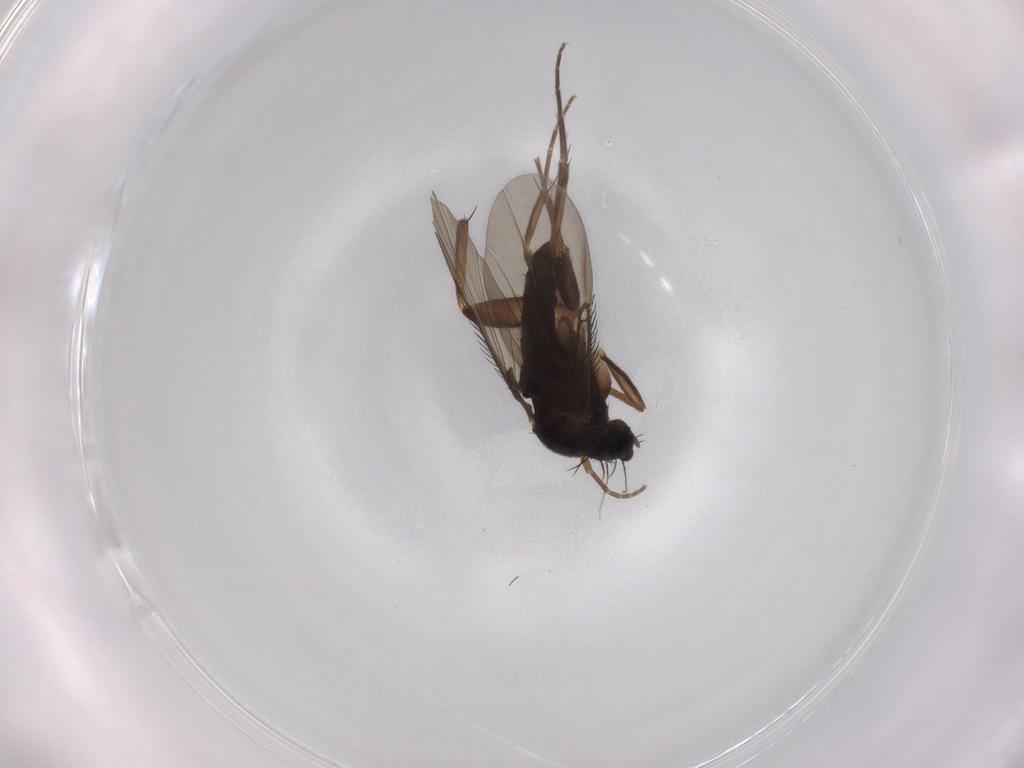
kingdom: Animalia
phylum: Arthropoda
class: Insecta
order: Diptera
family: Phoridae
